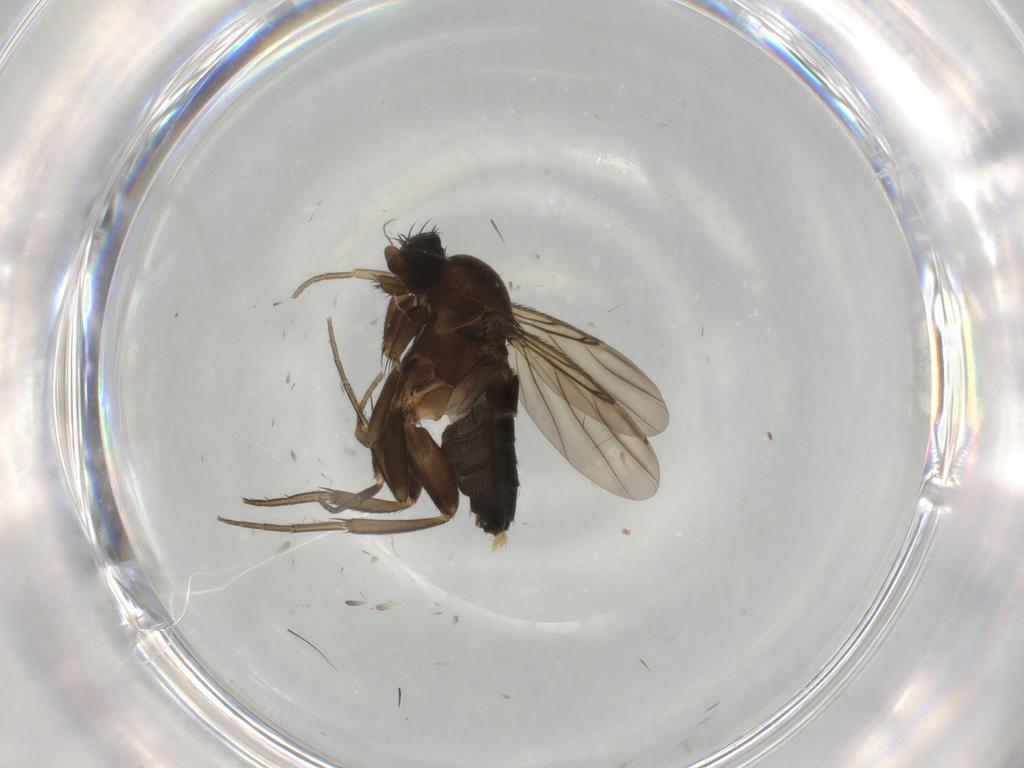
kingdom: Animalia
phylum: Arthropoda
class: Insecta
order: Diptera
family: Phoridae
